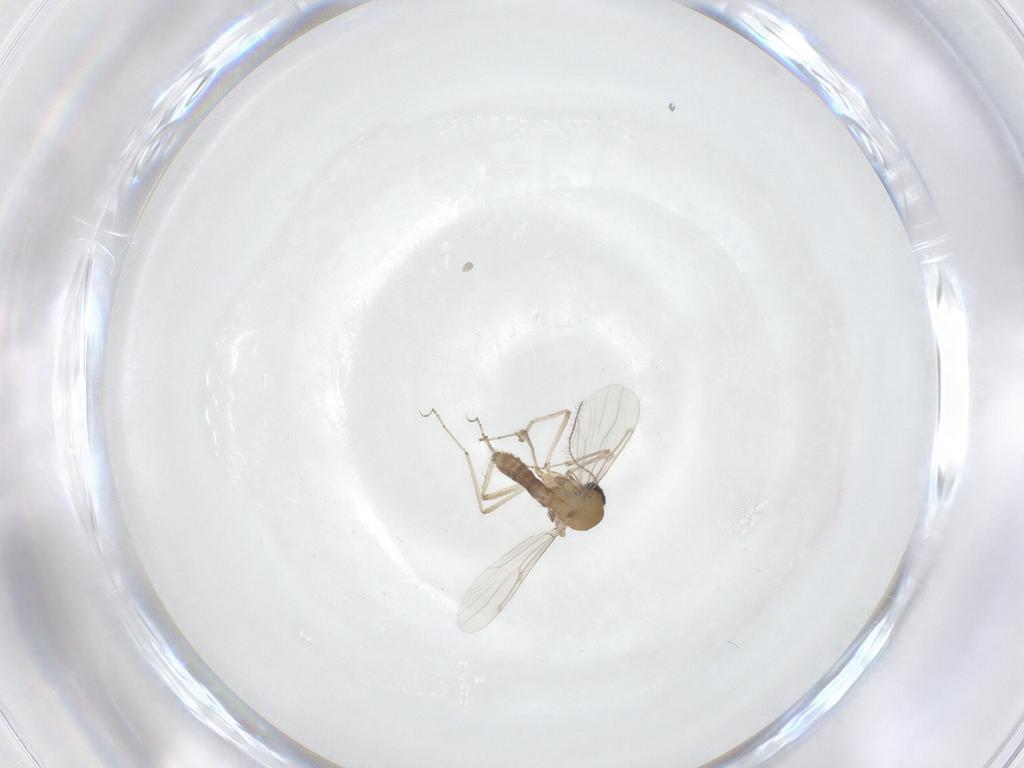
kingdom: Animalia
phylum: Arthropoda
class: Insecta
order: Diptera
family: Ceratopogonidae
